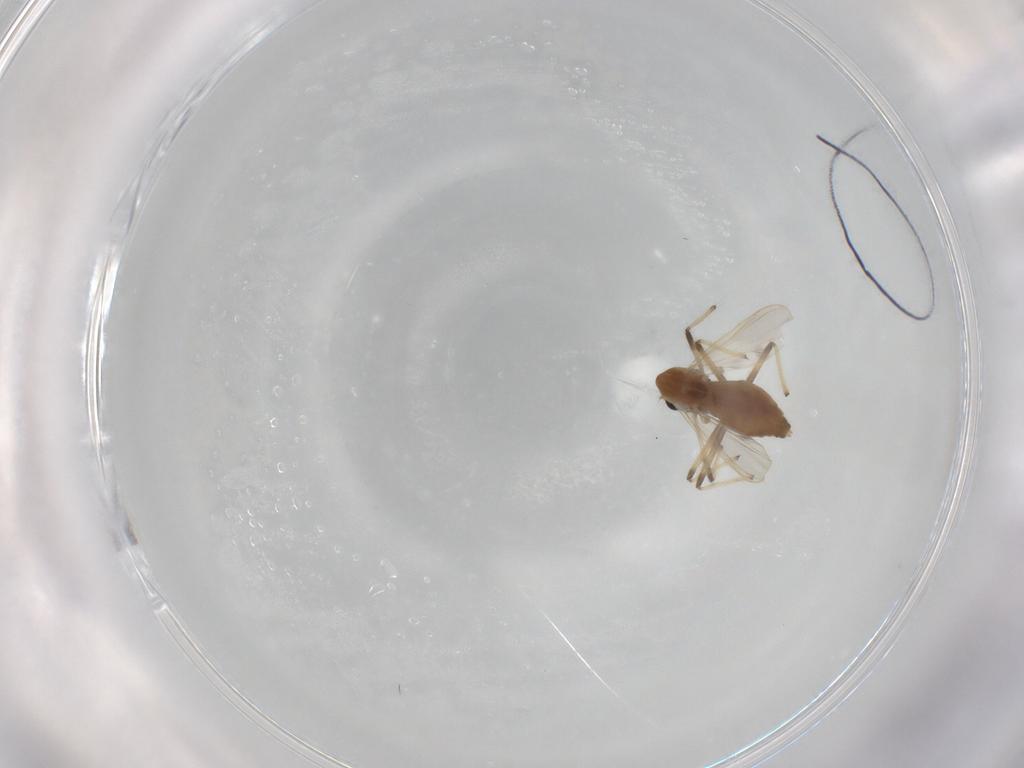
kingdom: Animalia
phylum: Arthropoda
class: Insecta
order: Diptera
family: Chironomidae
